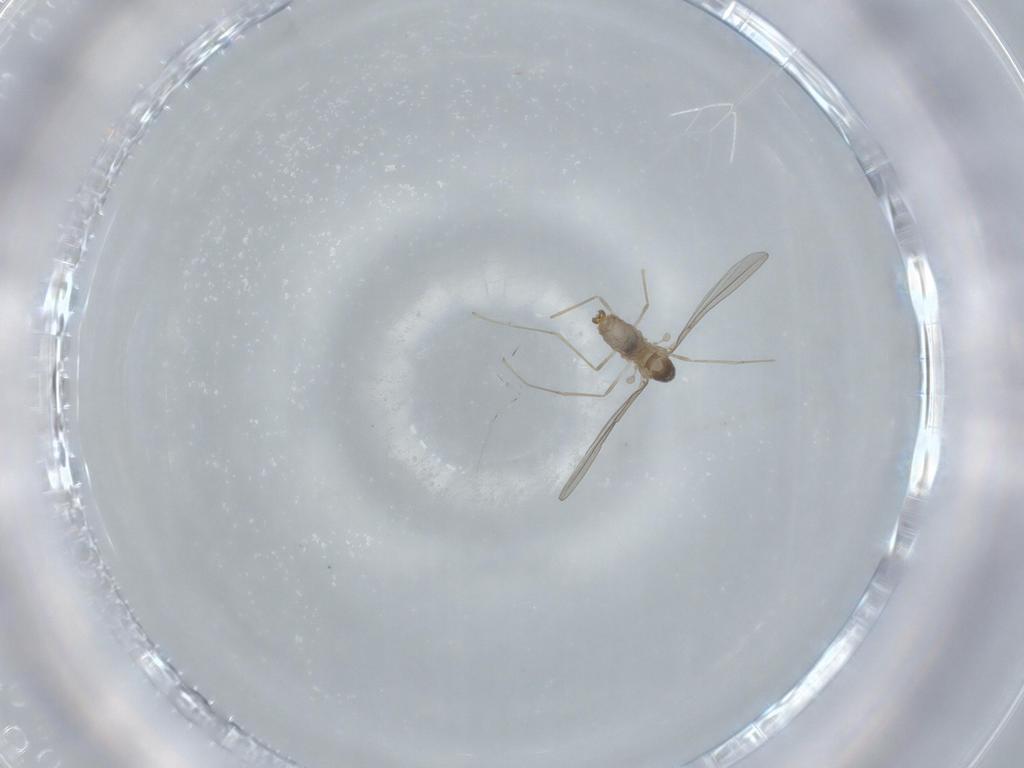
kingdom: Animalia
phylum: Arthropoda
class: Insecta
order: Diptera
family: Cecidomyiidae
